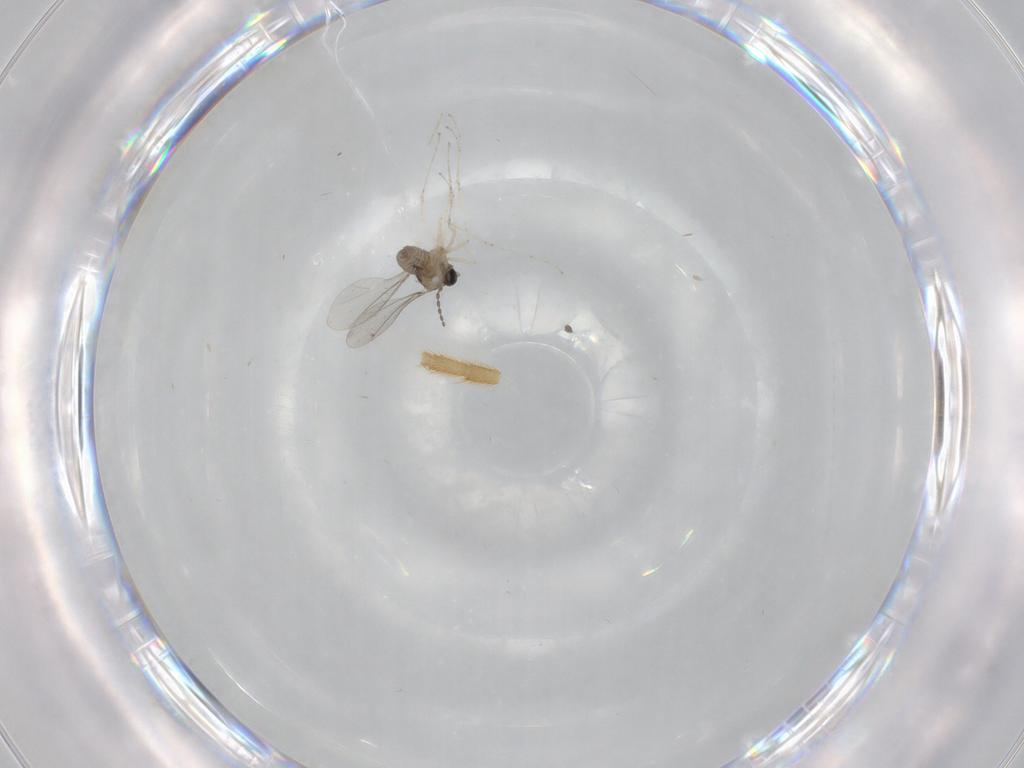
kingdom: Animalia
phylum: Arthropoda
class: Insecta
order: Diptera
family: Cecidomyiidae
